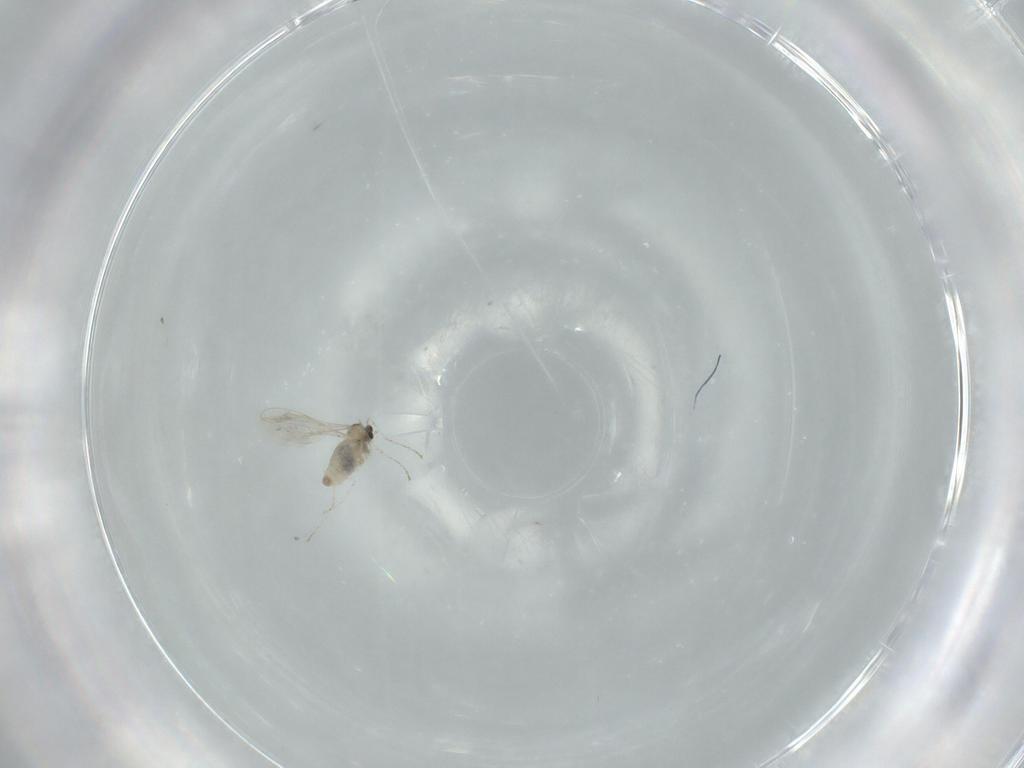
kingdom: Animalia
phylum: Arthropoda
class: Insecta
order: Diptera
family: Cecidomyiidae
